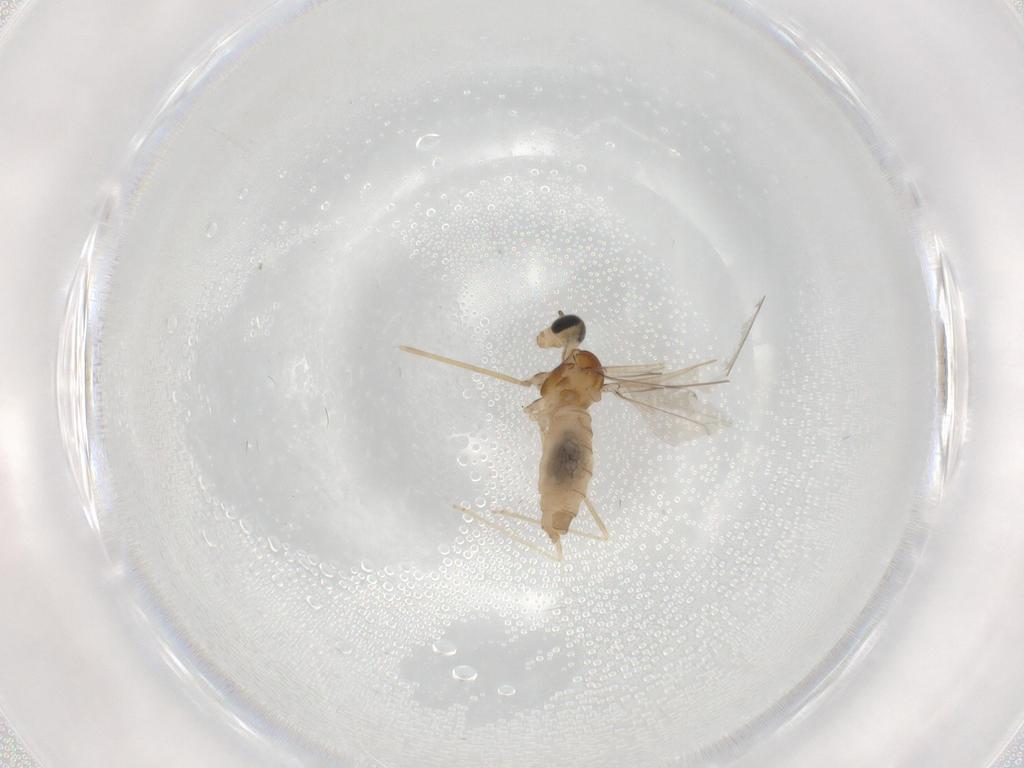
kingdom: Animalia
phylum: Arthropoda
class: Insecta
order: Diptera
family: Cecidomyiidae
